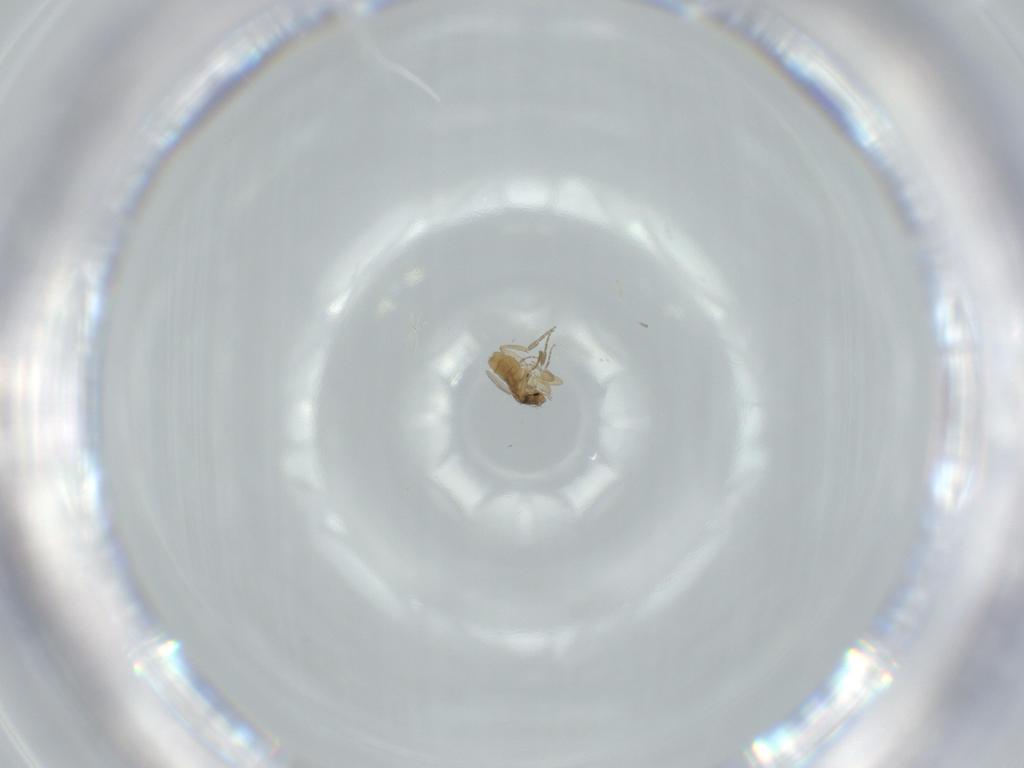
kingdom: Animalia
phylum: Arthropoda
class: Insecta
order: Diptera
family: Phoridae
